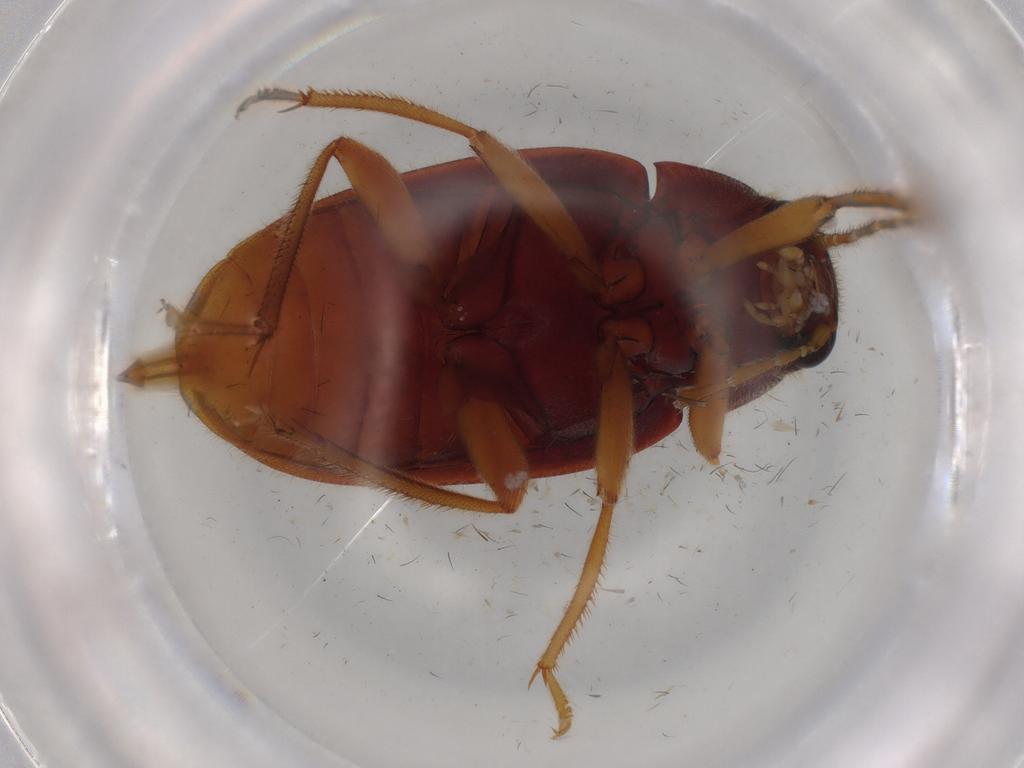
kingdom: Animalia
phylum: Arthropoda
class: Insecta
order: Coleoptera
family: Ptilodactylidae
